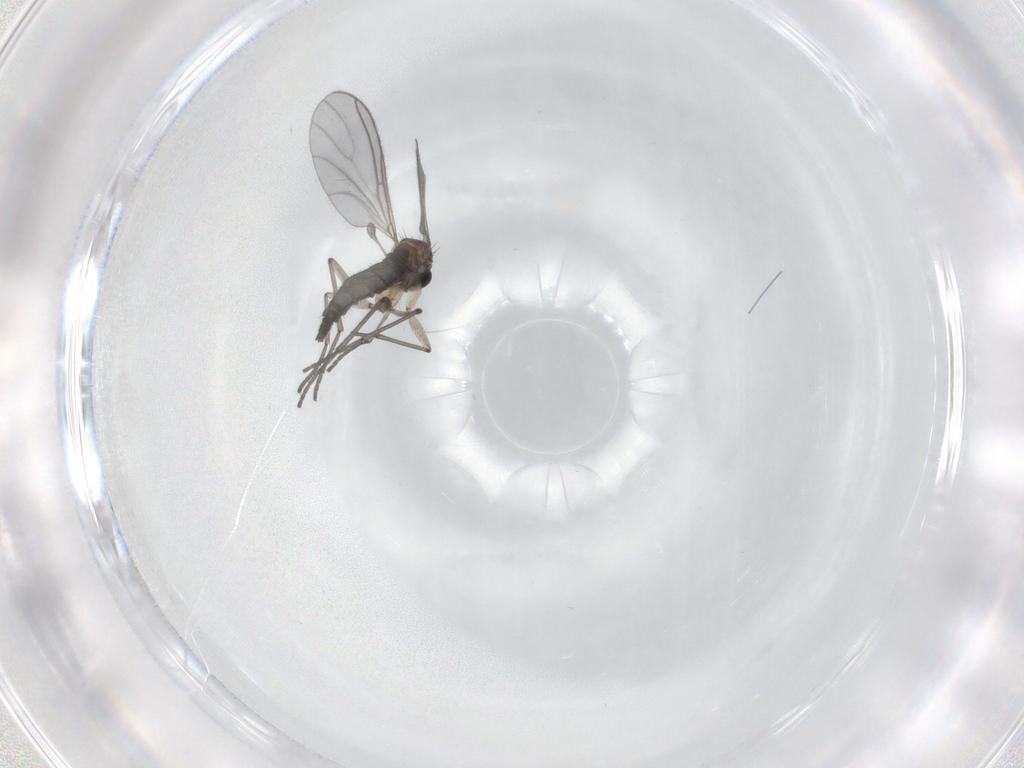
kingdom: Animalia
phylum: Arthropoda
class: Insecta
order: Diptera
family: Sciaridae
